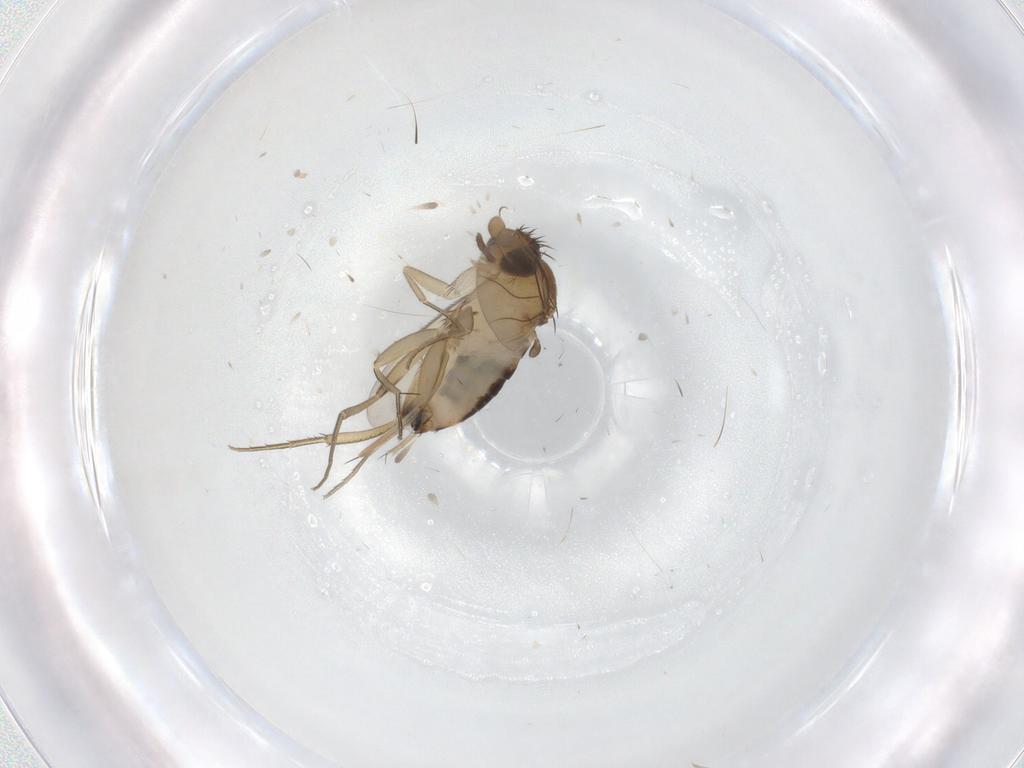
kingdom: Animalia
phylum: Arthropoda
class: Insecta
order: Diptera
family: Phoridae
